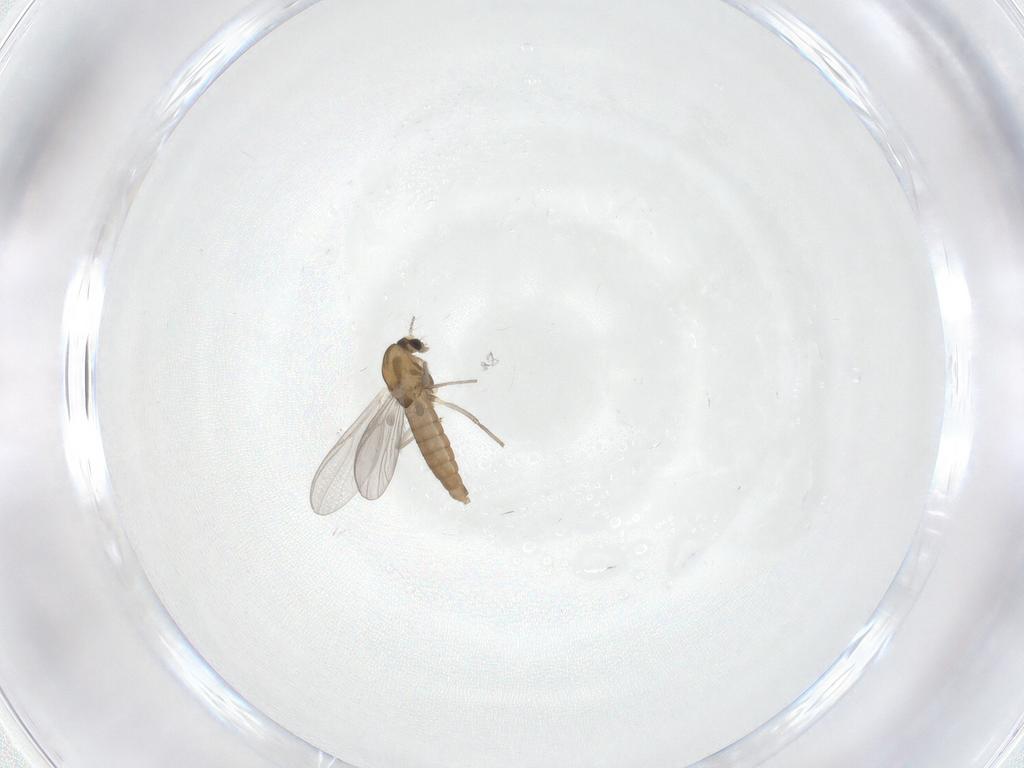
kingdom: Animalia
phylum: Arthropoda
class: Insecta
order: Diptera
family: Chironomidae
